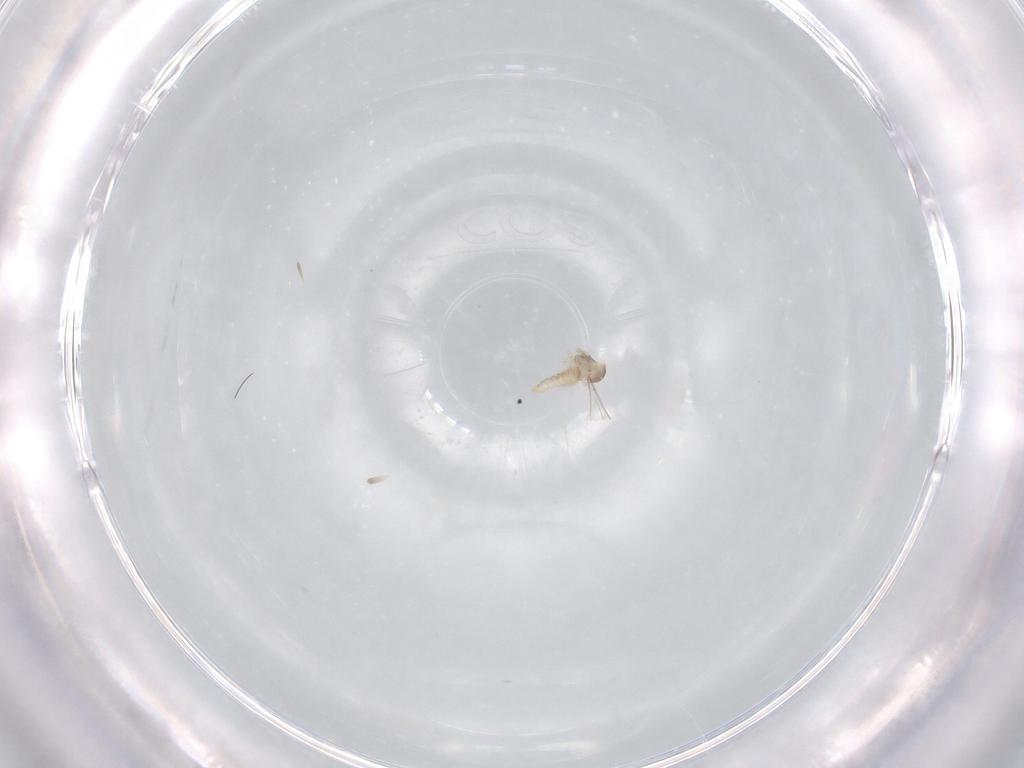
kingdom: Animalia
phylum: Arthropoda
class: Insecta
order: Diptera
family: Cecidomyiidae
